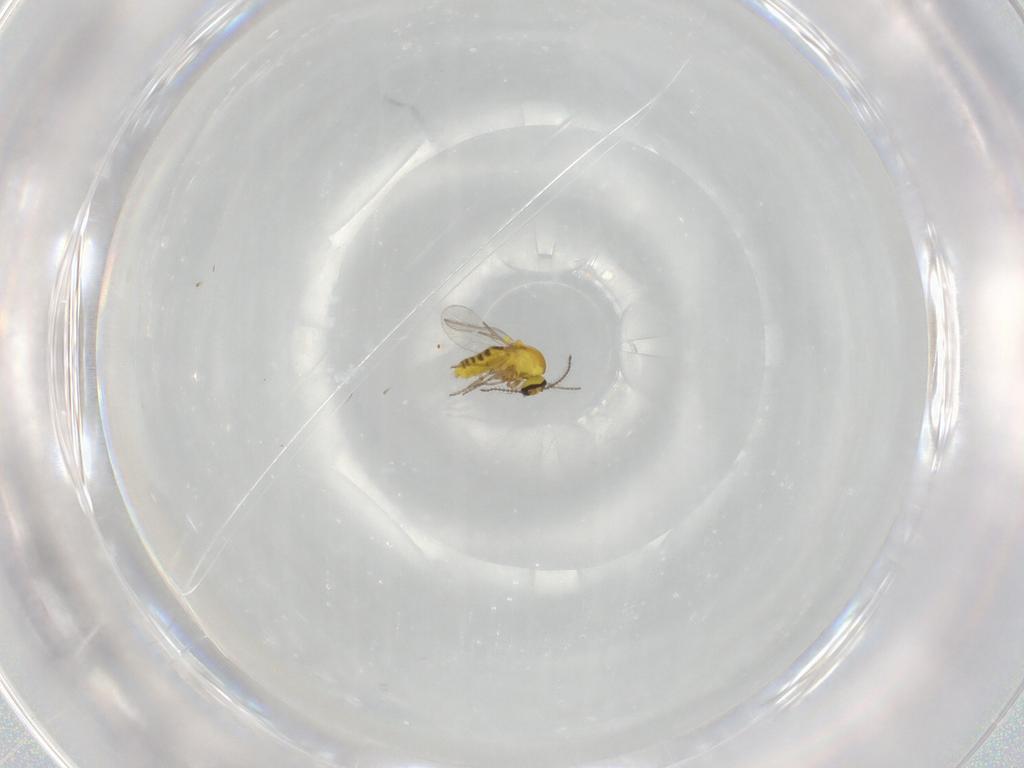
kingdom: Animalia
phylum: Arthropoda
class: Insecta
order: Diptera
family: Ceratopogonidae
